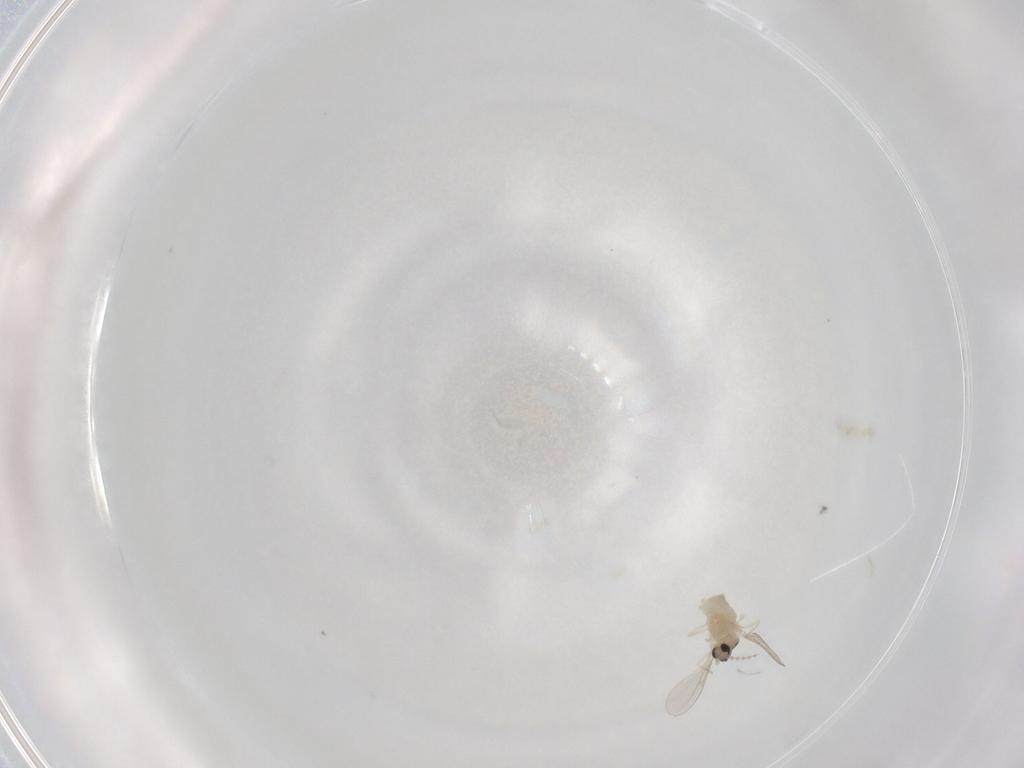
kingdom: Animalia
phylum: Arthropoda
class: Insecta
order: Diptera
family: Cecidomyiidae
